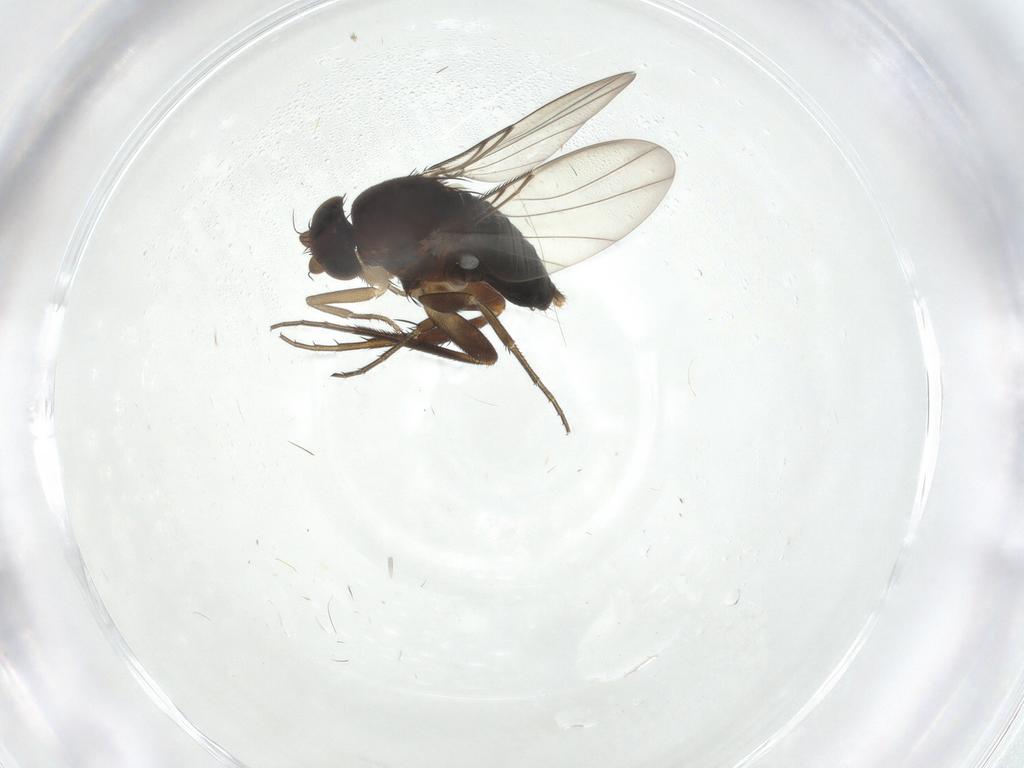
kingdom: Animalia
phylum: Arthropoda
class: Insecta
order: Diptera
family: Phoridae
